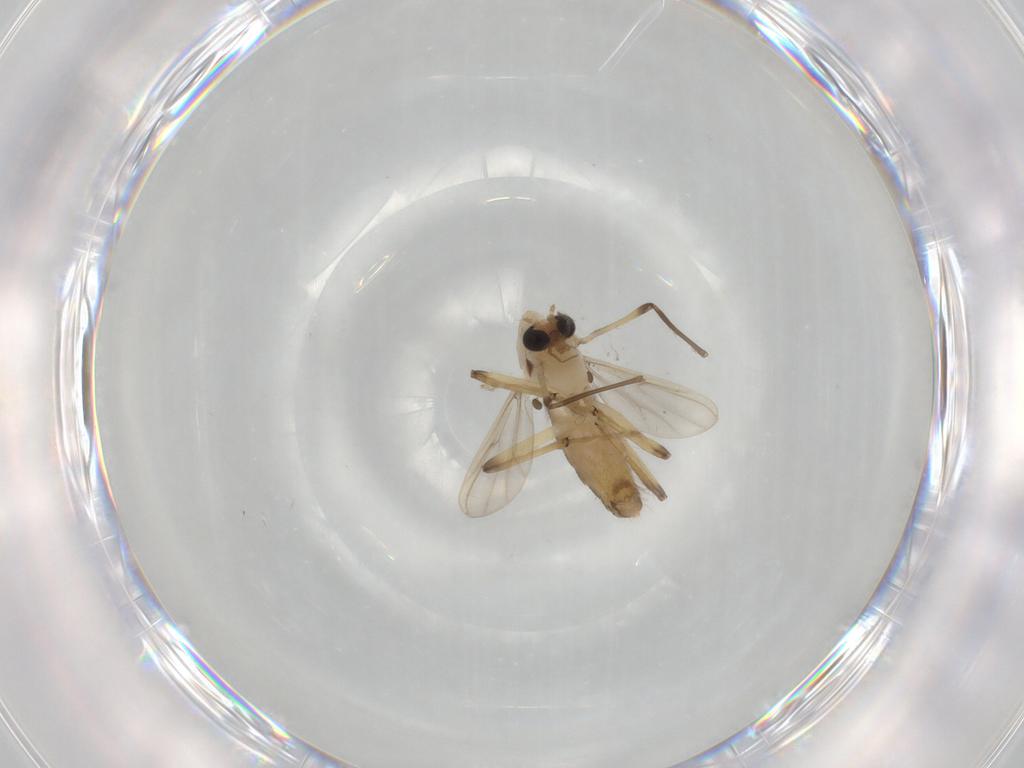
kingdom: Animalia
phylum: Arthropoda
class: Insecta
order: Diptera
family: Chironomidae
